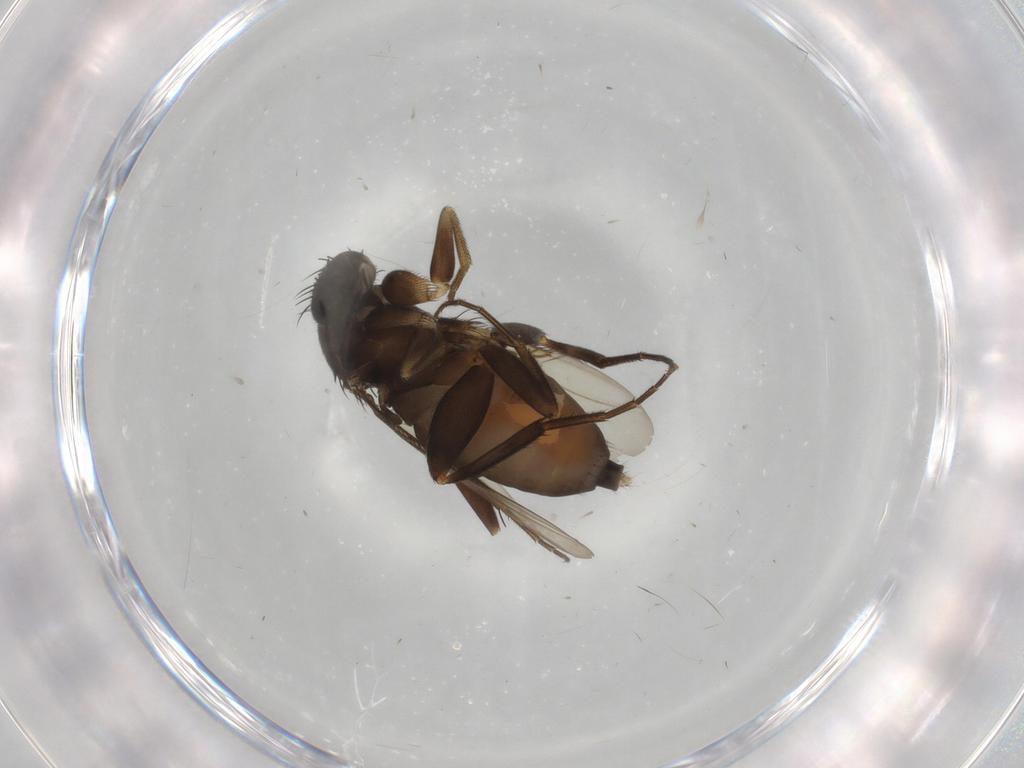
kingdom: Animalia
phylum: Arthropoda
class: Insecta
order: Diptera
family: Phoridae
